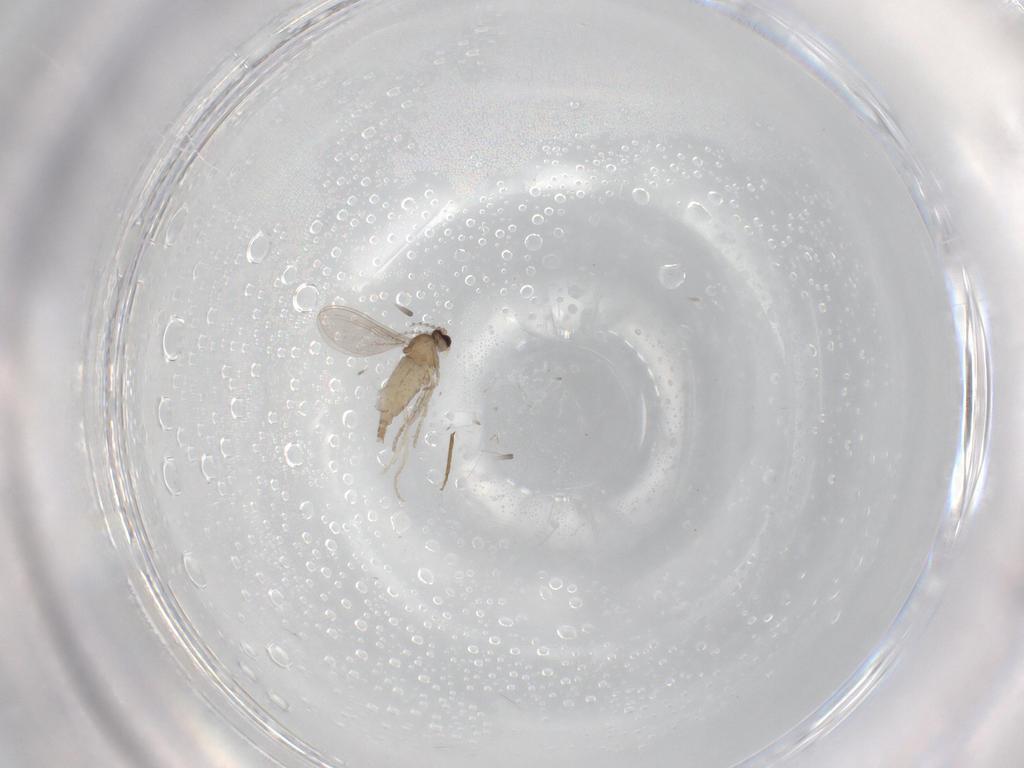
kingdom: Animalia
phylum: Arthropoda
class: Insecta
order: Diptera
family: Cecidomyiidae
